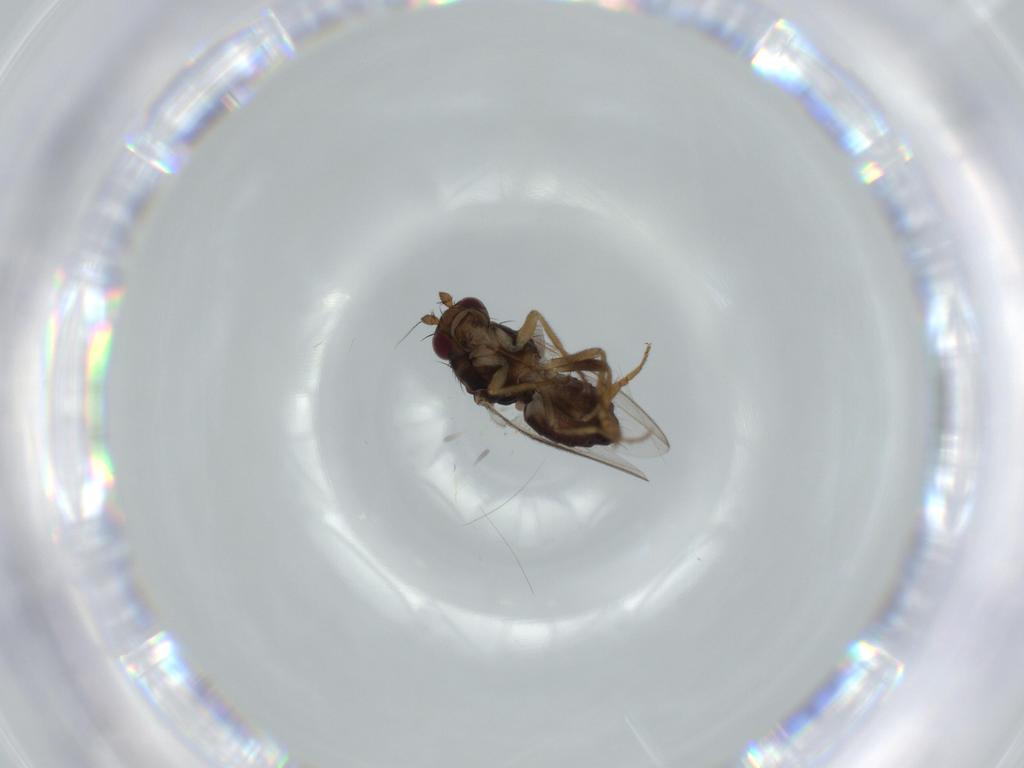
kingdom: Animalia
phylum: Arthropoda
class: Insecta
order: Diptera
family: Sphaeroceridae
